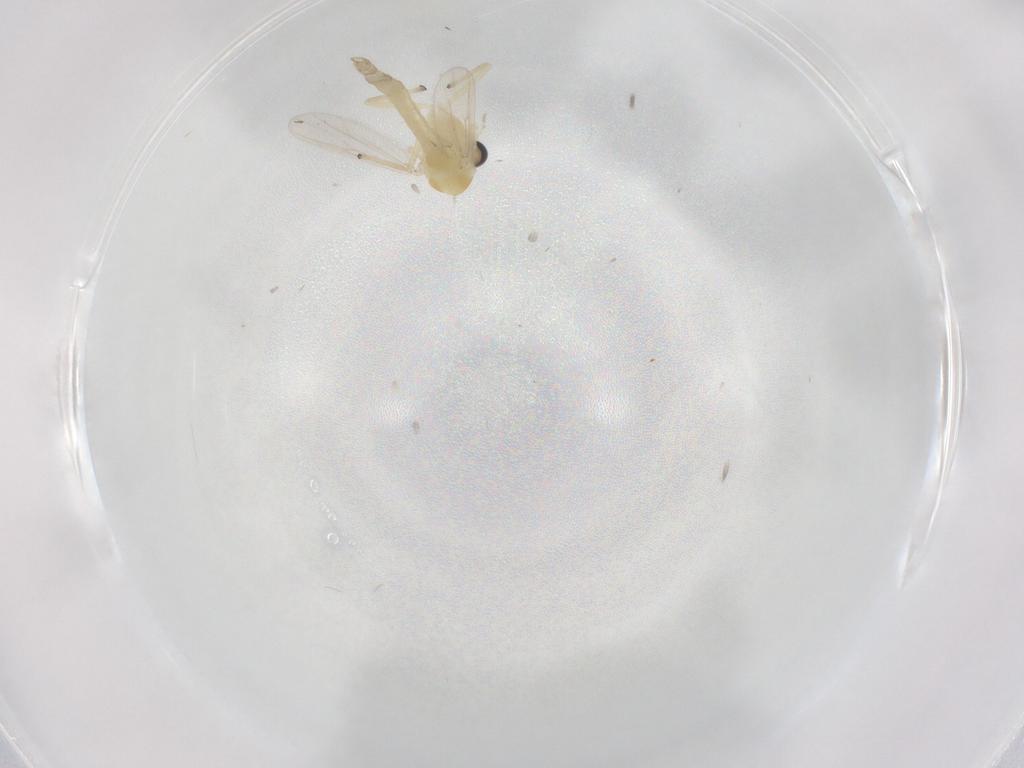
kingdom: Animalia
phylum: Arthropoda
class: Insecta
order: Diptera
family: Chironomidae
